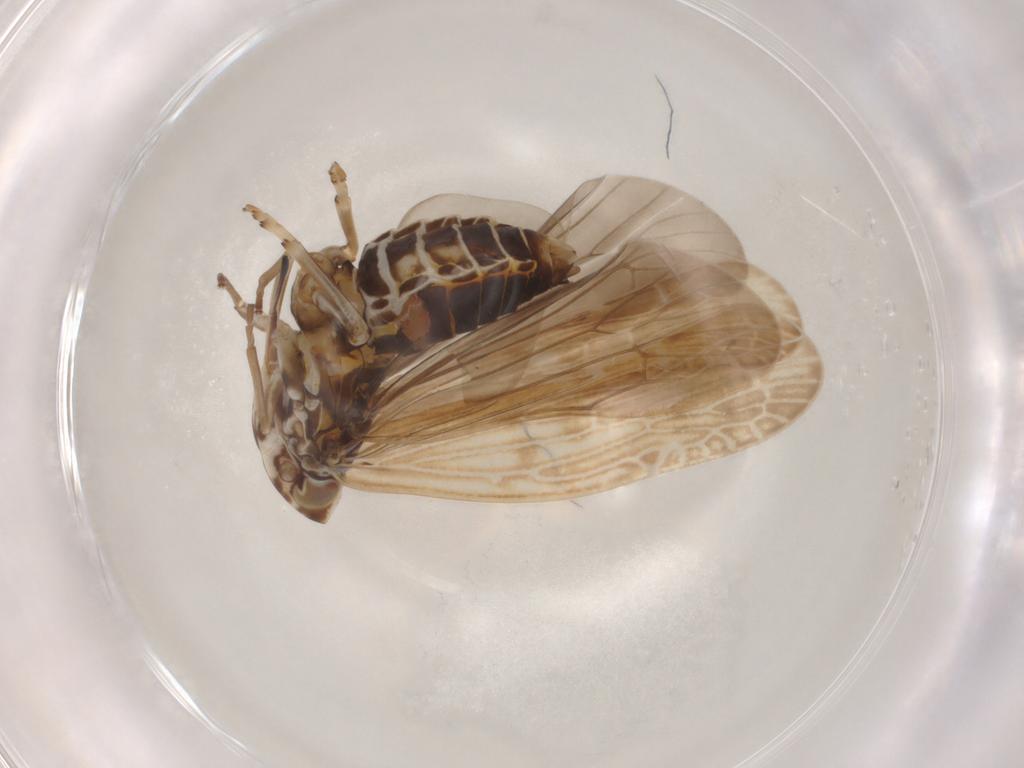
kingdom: Animalia
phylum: Arthropoda
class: Insecta
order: Hemiptera
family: Achilidae
